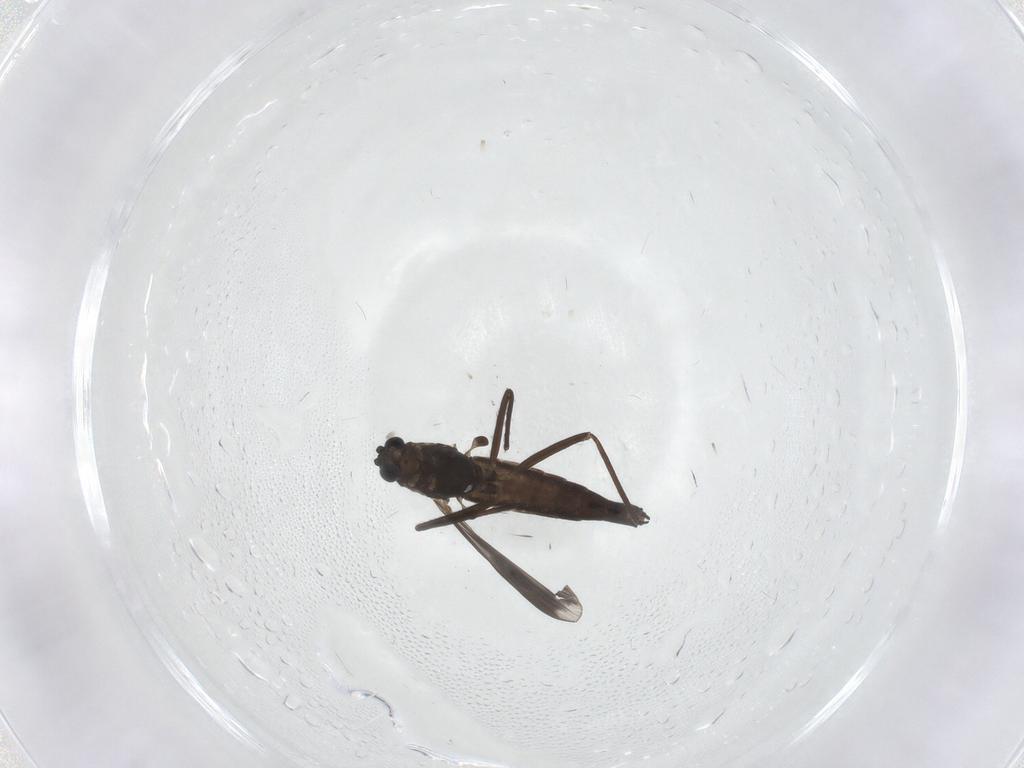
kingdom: Animalia
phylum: Arthropoda
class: Insecta
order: Diptera
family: Chironomidae
